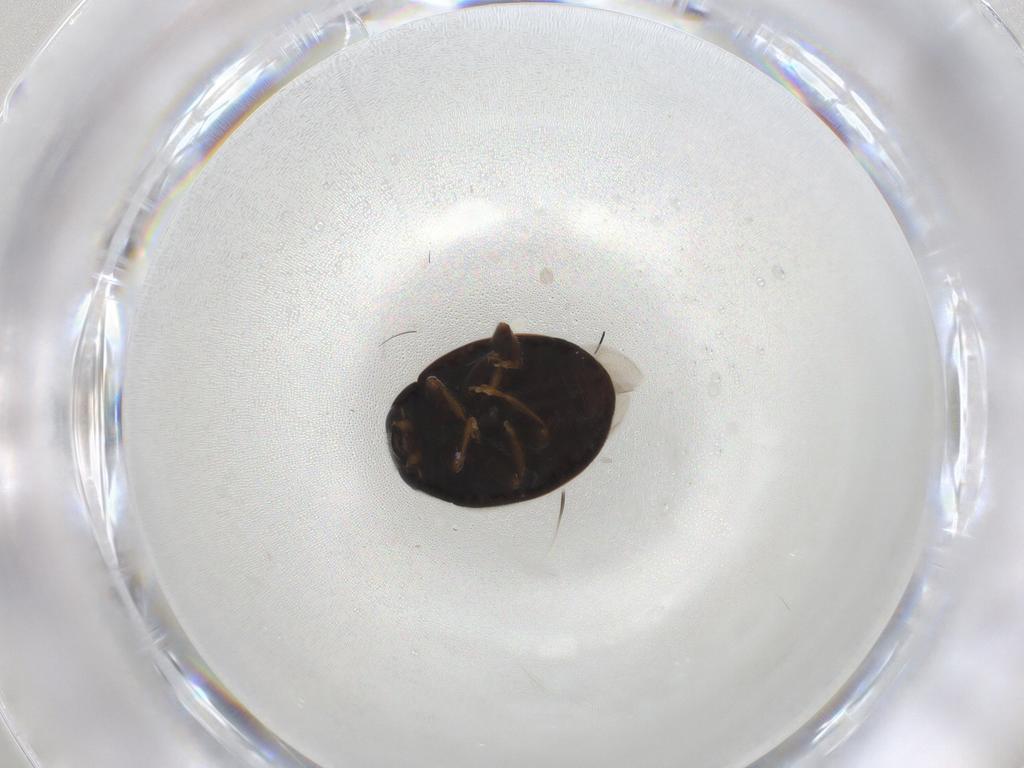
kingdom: Animalia
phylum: Arthropoda
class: Insecta
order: Coleoptera
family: Coccinellidae
